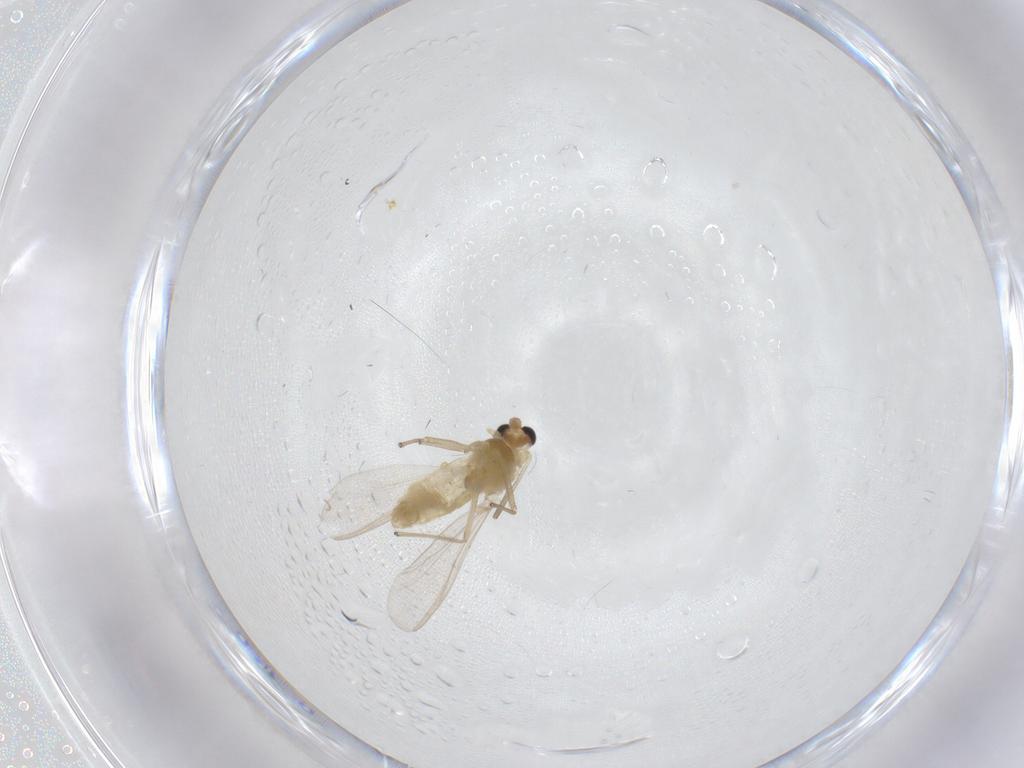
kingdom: Animalia
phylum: Arthropoda
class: Insecta
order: Diptera
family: Chironomidae
